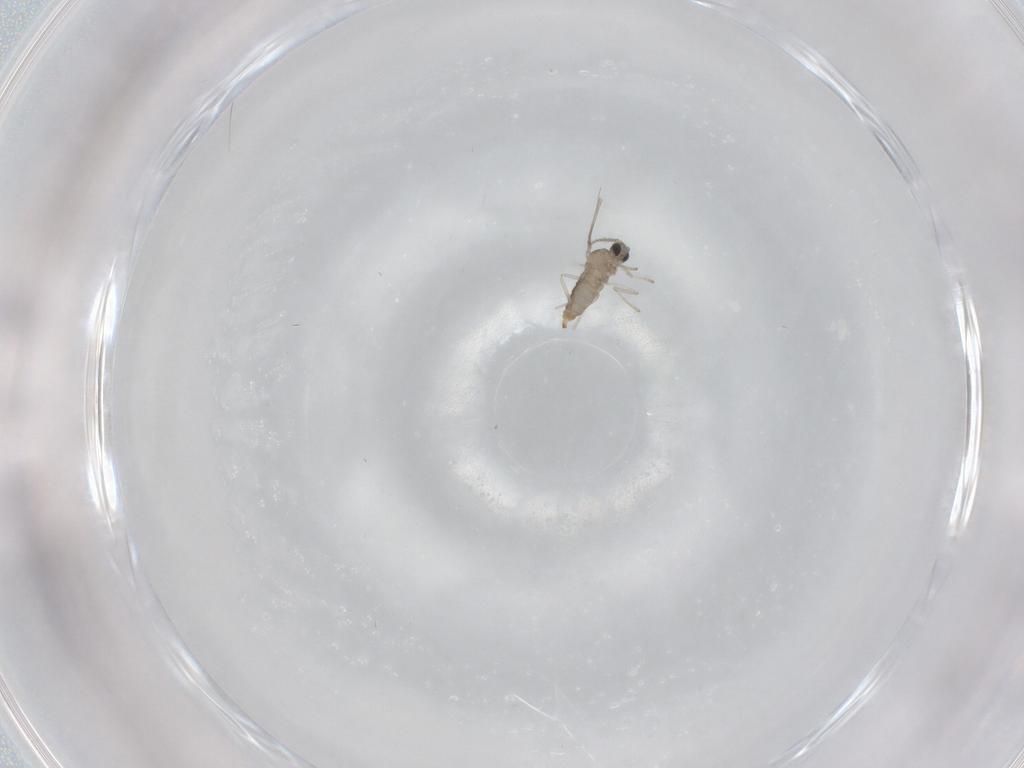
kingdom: Animalia
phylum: Arthropoda
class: Insecta
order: Diptera
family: Cecidomyiidae
